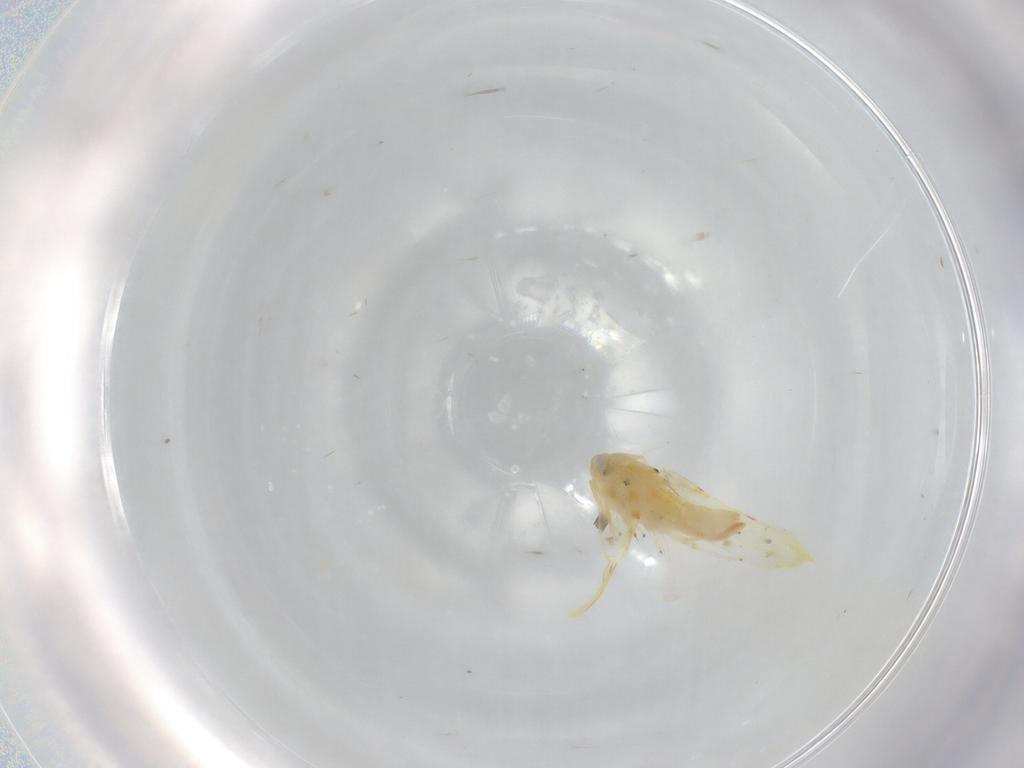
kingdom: Animalia
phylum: Arthropoda
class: Insecta
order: Hemiptera
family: Cicadellidae
